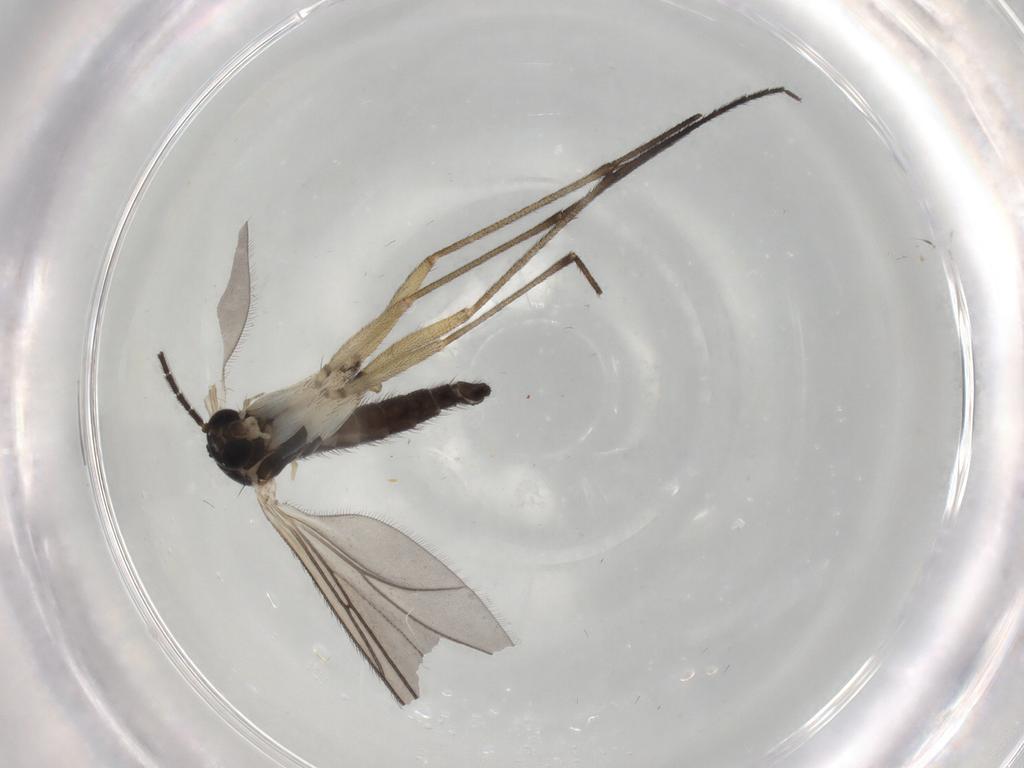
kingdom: Animalia
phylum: Arthropoda
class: Insecta
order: Diptera
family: Sciaridae
